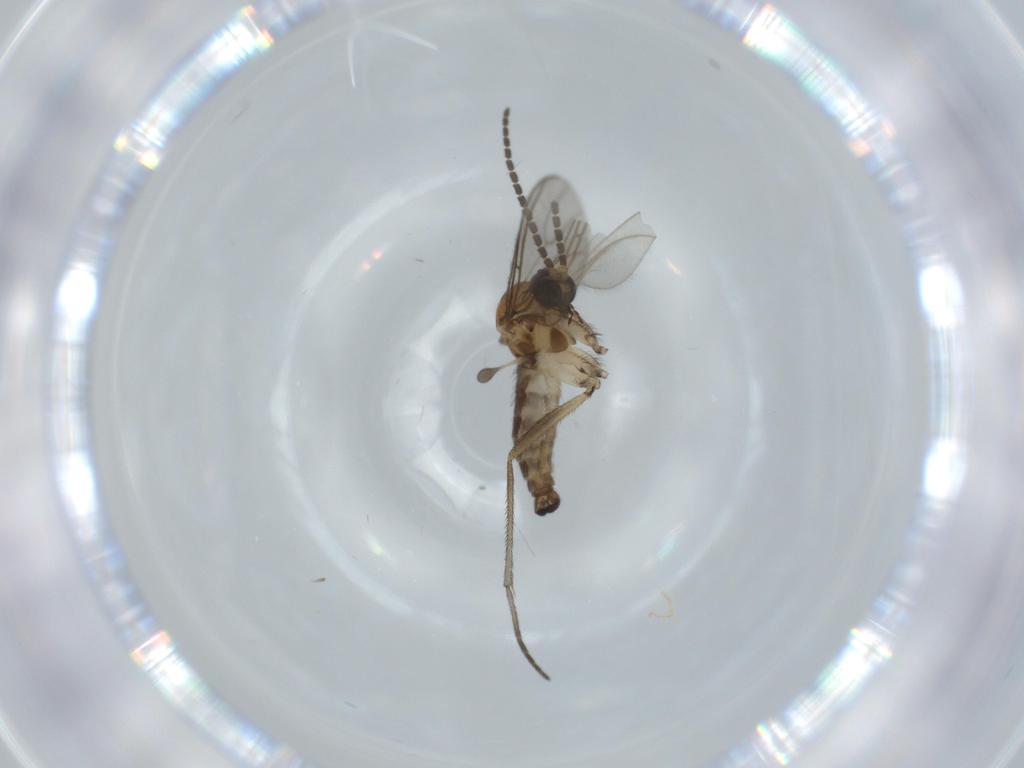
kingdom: Animalia
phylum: Arthropoda
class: Insecta
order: Diptera
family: Sciaridae
